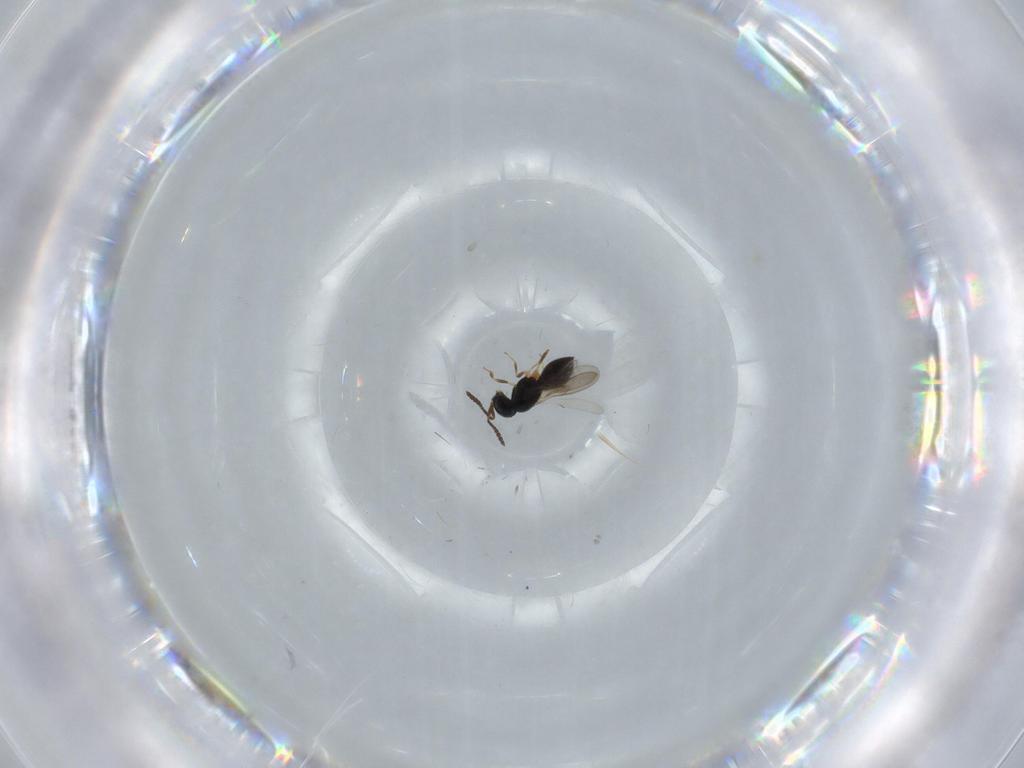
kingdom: Animalia
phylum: Arthropoda
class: Insecta
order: Hymenoptera
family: Scelionidae
